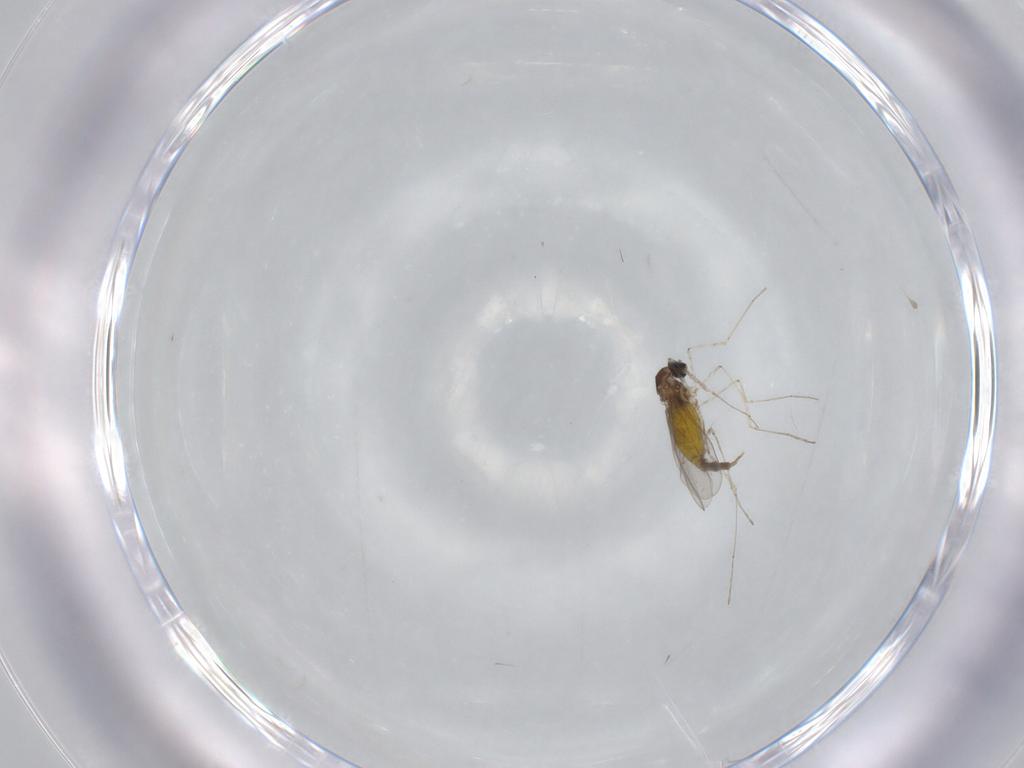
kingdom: Animalia
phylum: Arthropoda
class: Insecta
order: Diptera
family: Cecidomyiidae
